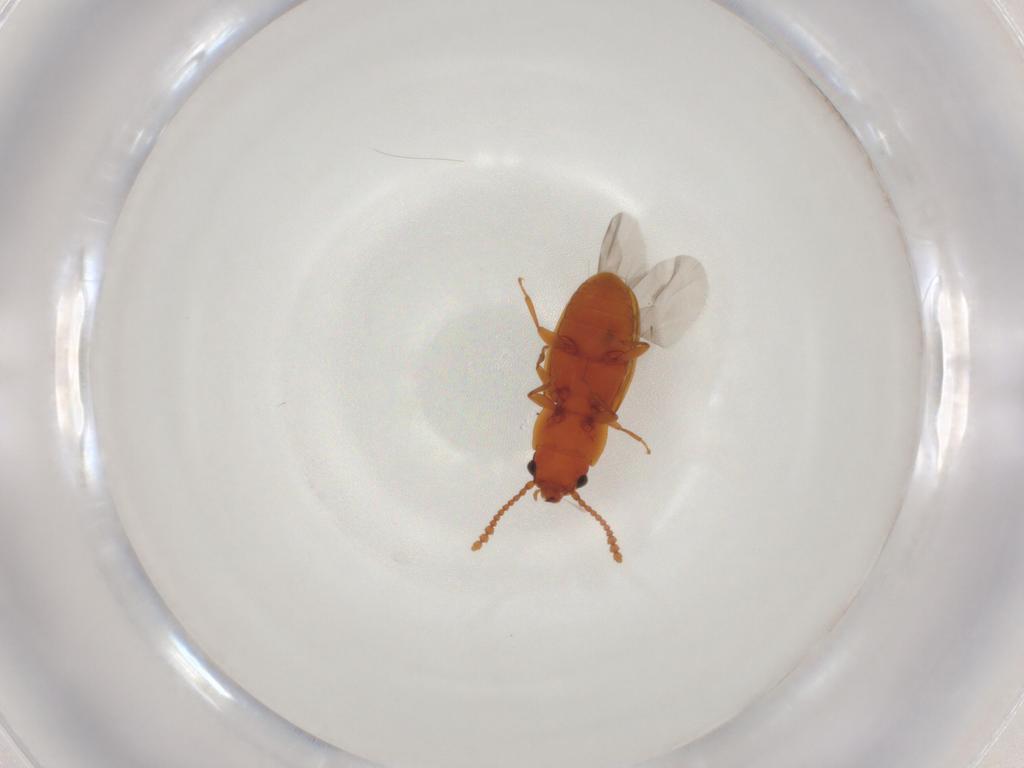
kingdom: Animalia
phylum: Arthropoda
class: Insecta
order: Coleoptera
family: Laemophloeidae
